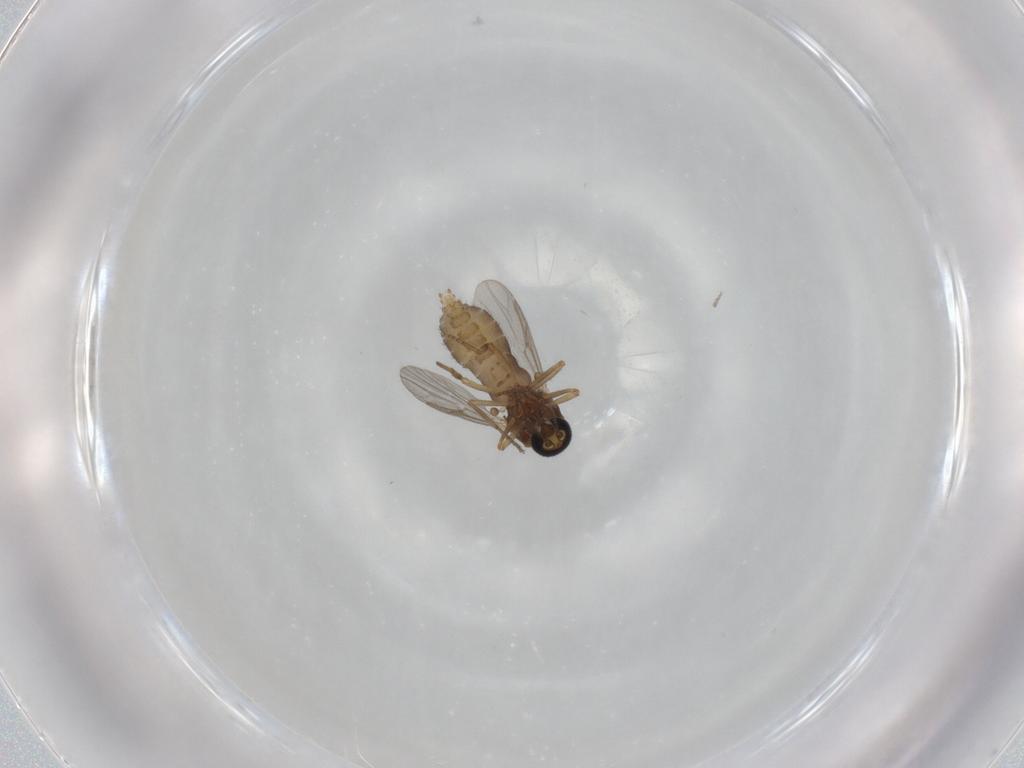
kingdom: Animalia
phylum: Arthropoda
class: Insecta
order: Diptera
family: Ceratopogonidae
